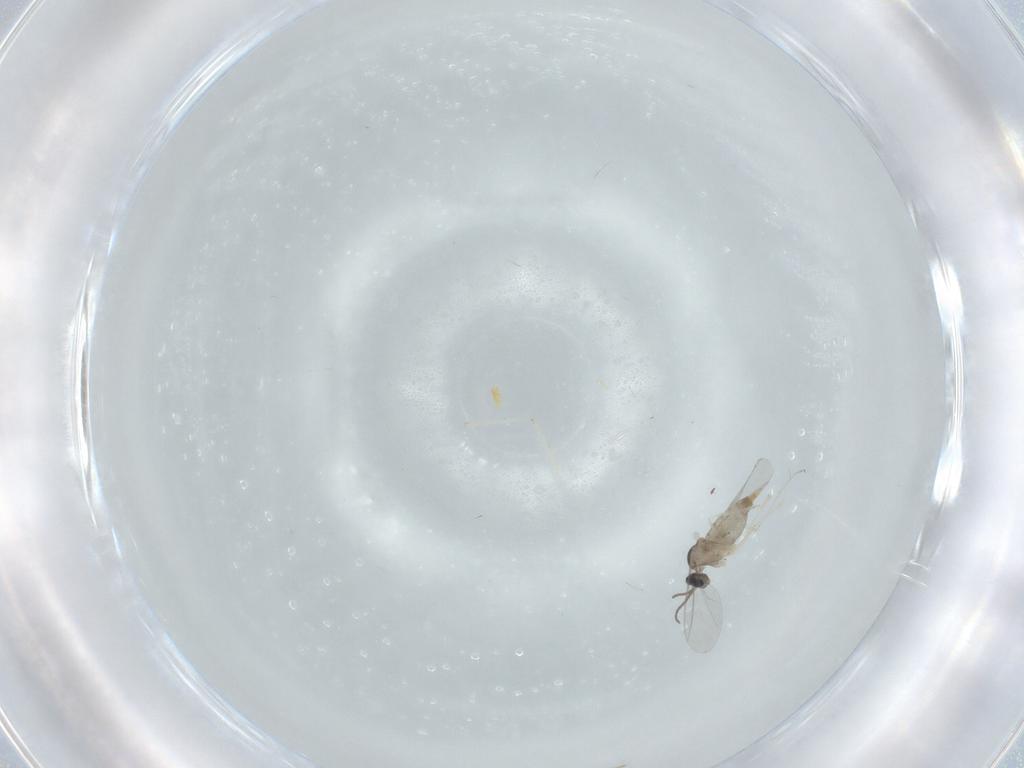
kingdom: Animalia
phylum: Arthropoda
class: Insecta
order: Diptera
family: Cecidomyiidae
